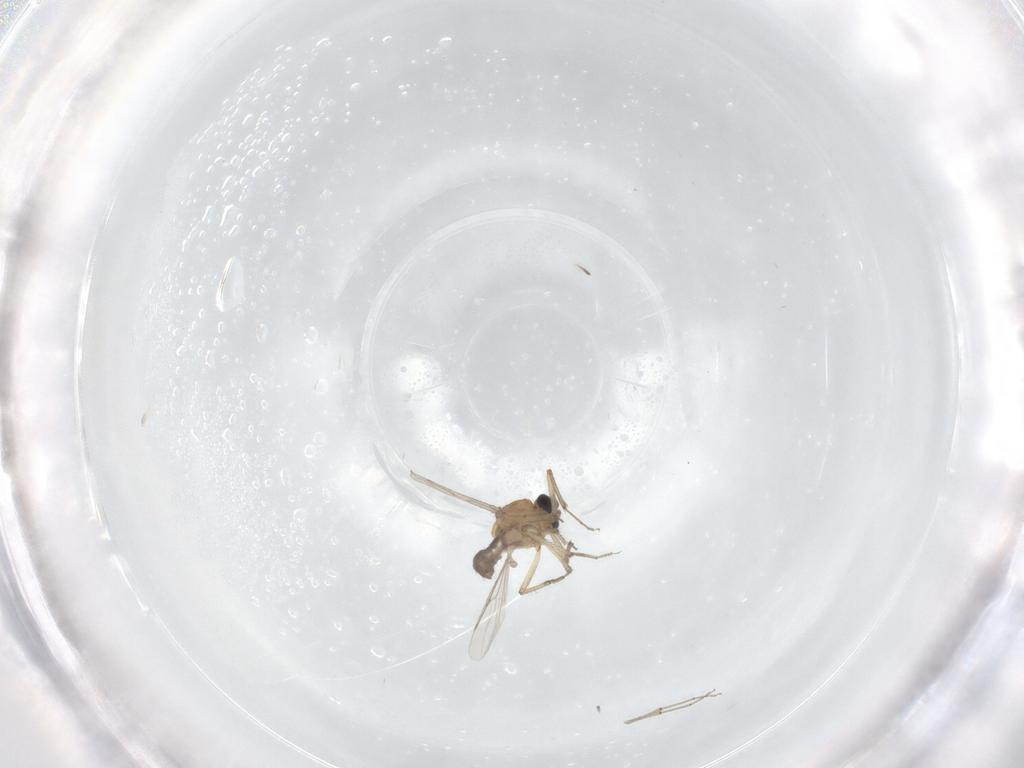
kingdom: Animalia
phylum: Arthropoda
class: Insecta
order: Diptera
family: Ceratopogonidae
